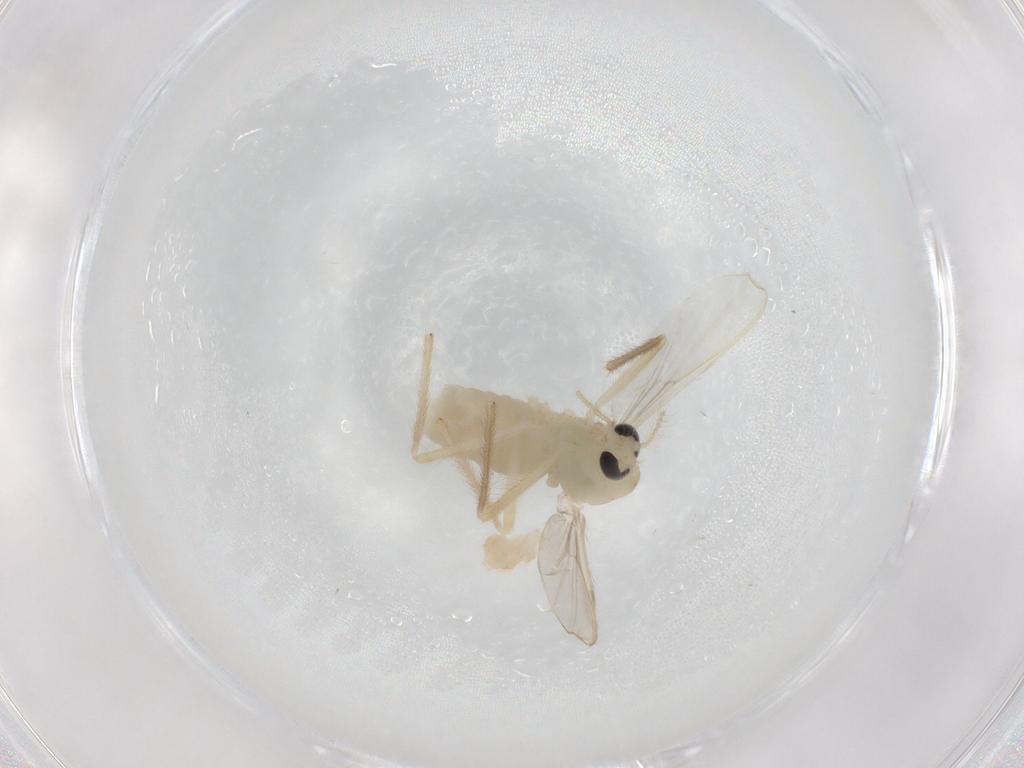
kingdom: Animalia
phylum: Arthropoda
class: Insecta
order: Diptera
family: Chironomidae
